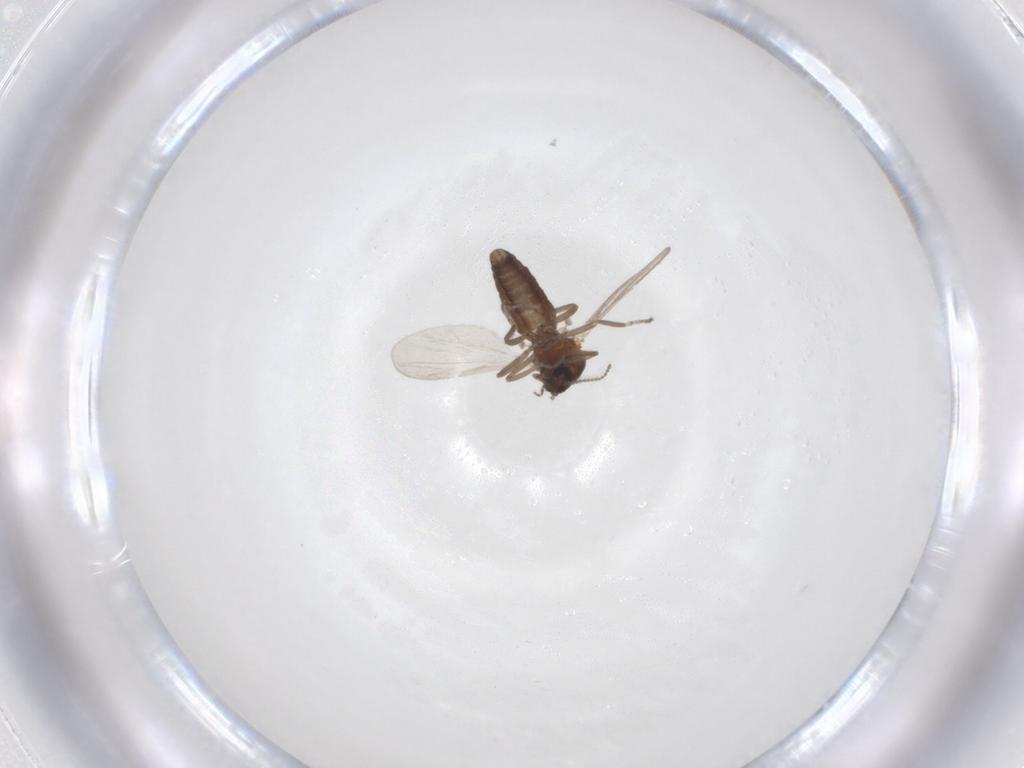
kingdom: Animalia
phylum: Arthropoda
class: Insecta
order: Diptera
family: Ceratopogonidae
